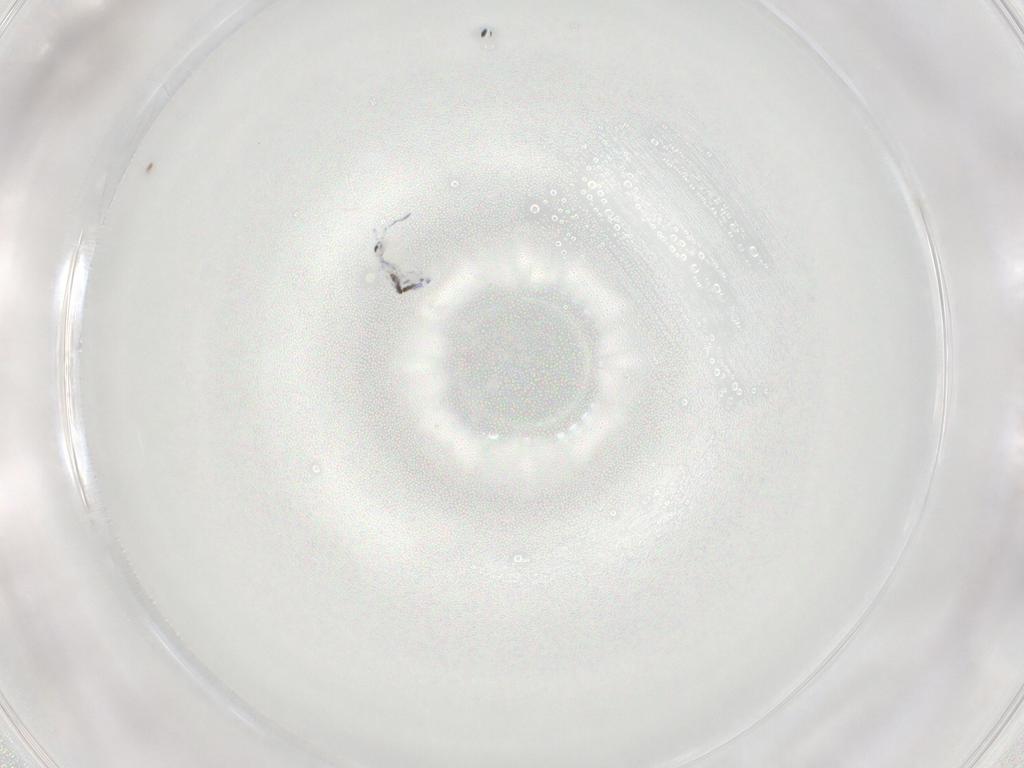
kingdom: Animalia
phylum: Arthropoda
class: Collembola
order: Entomobryomorpha
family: Entomobryidae
